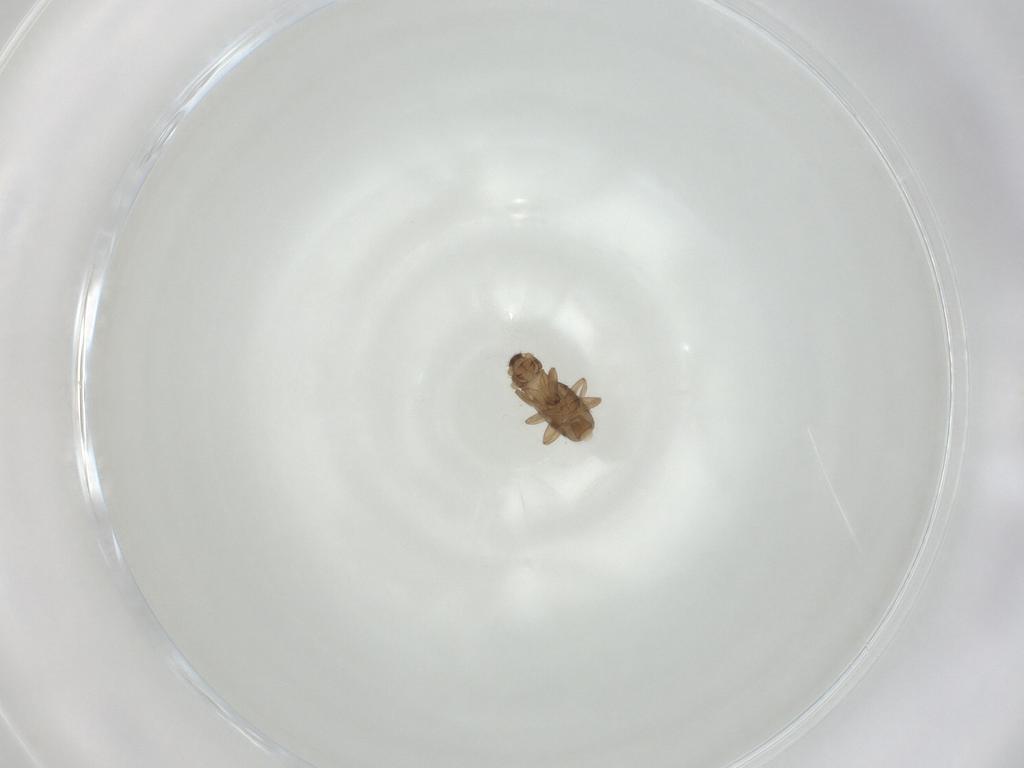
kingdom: Animalia
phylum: Arthropoda
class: Insecta
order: Diptera
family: Phoridae
